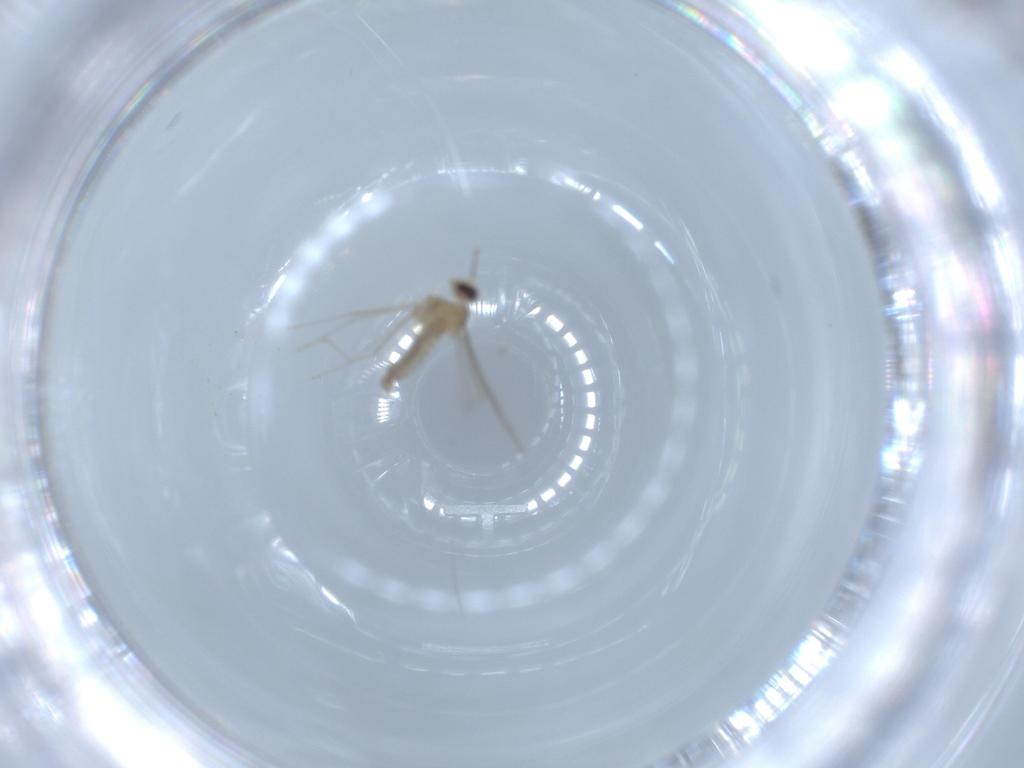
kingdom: Animalia
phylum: Arthropoda
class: Insecta
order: Diptera
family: Cecidomyiidae
